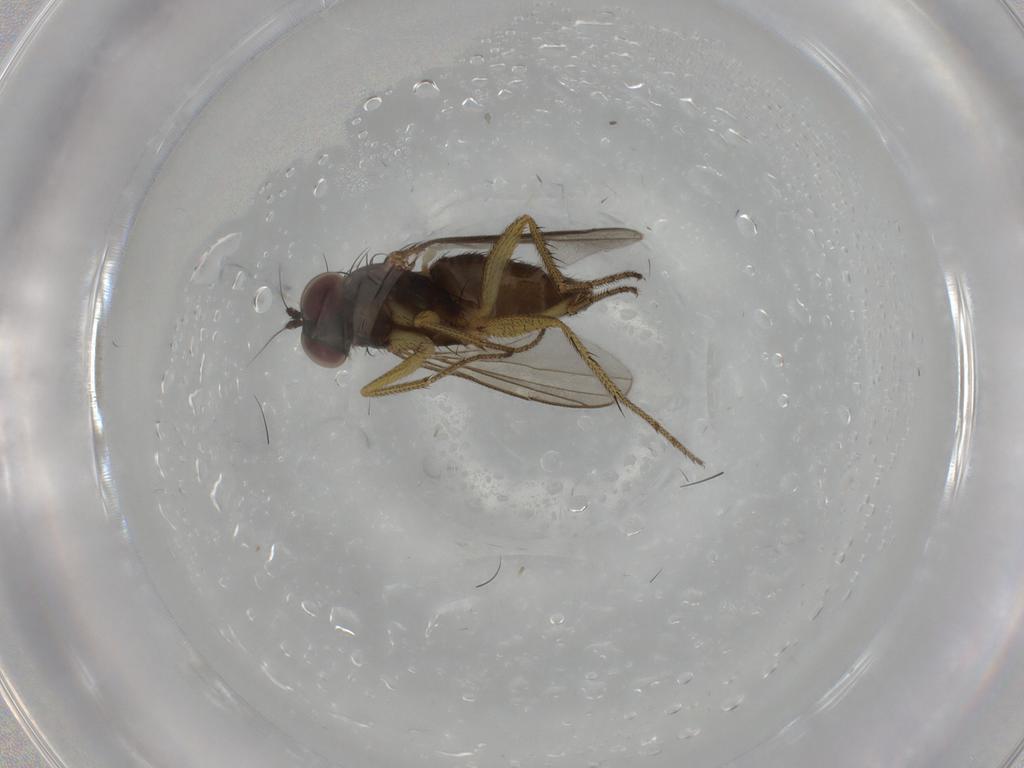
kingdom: Animalia
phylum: Arthropoda
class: Insecta
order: Diptera
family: Dolichopodidae
